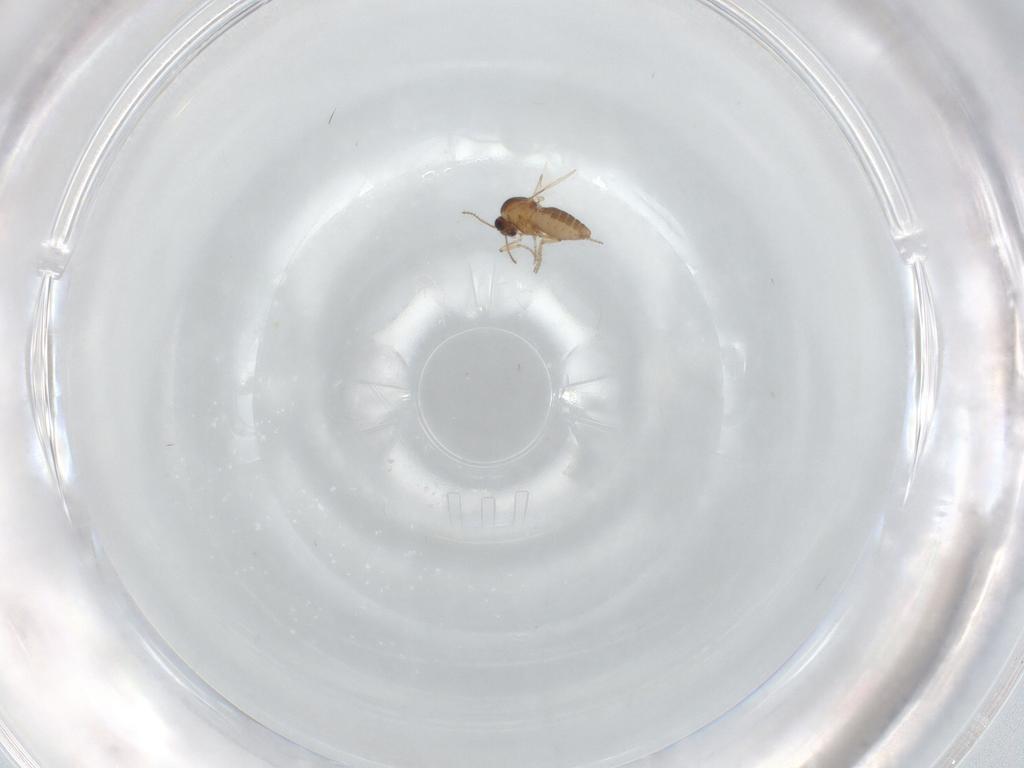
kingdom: Animalia
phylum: Arthropoda
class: Insecta
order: Diptera
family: Ceratopogonidae
